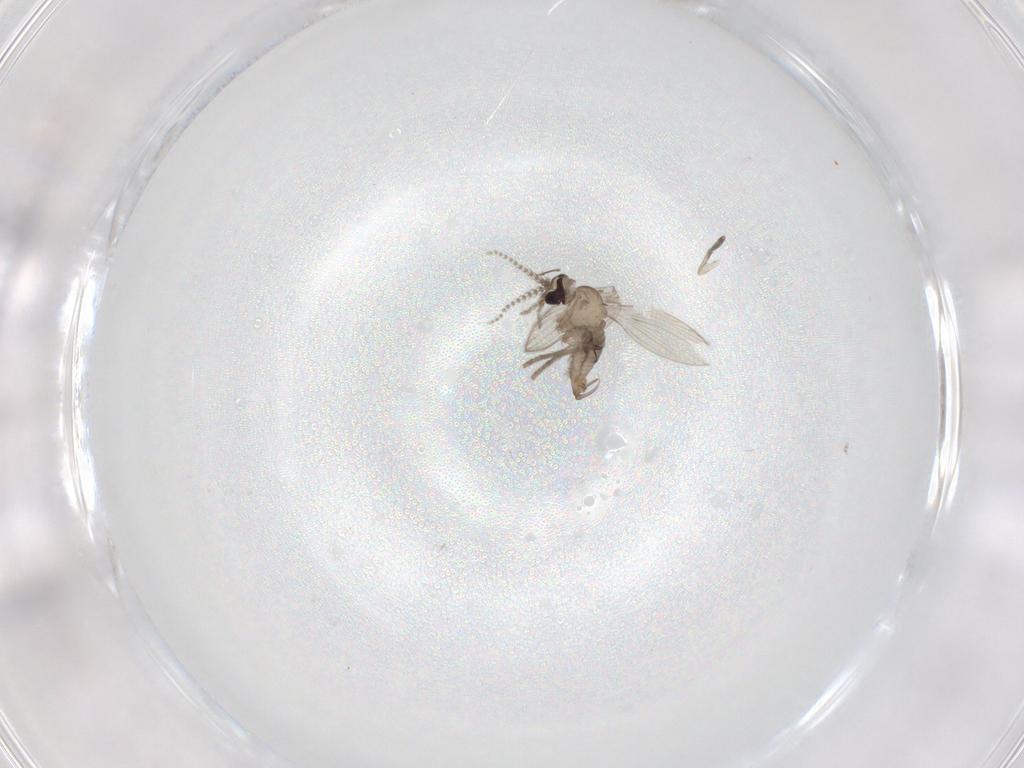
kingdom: Animalia
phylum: Arthropoda
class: Insecta
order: Diptera
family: Psychodidae
